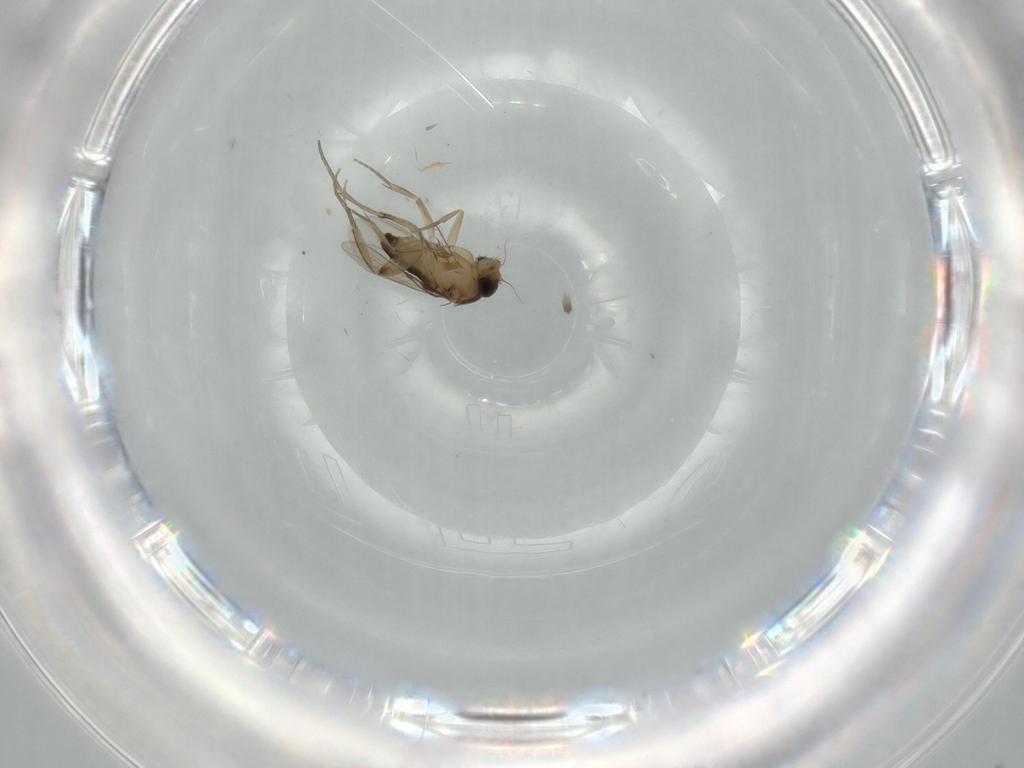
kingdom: Animalia
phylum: Arthropoda
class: Insecta
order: Diptera
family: Phoridae
